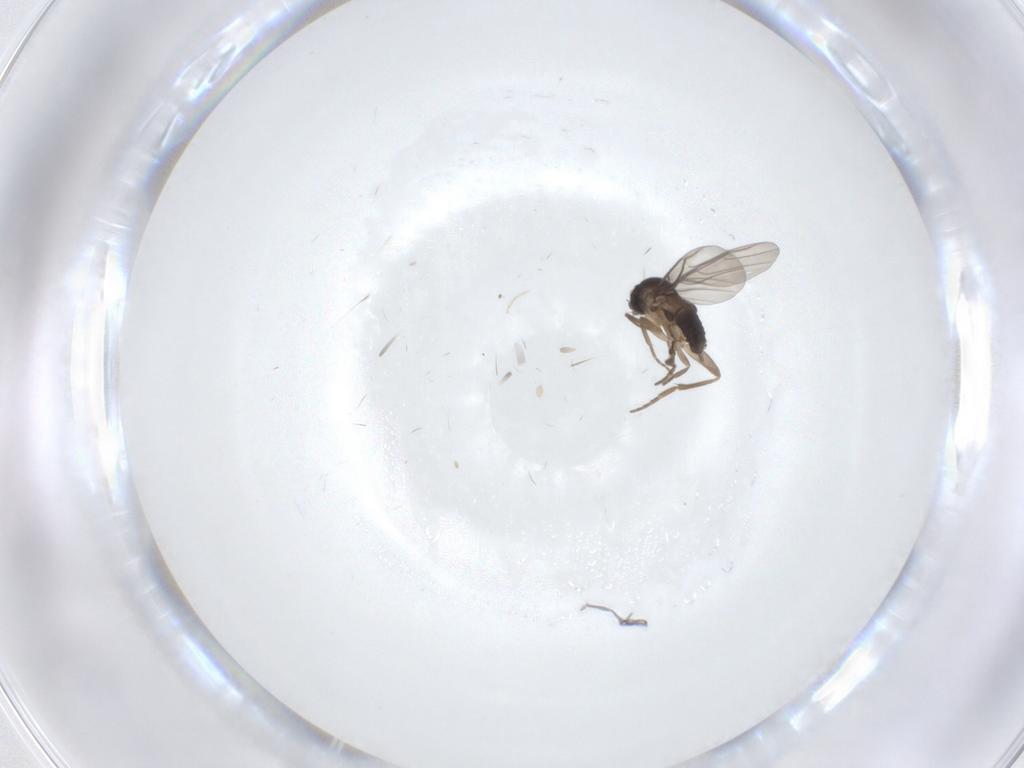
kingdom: Animalia
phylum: Arthropoda
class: Insecta
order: Diptera
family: Phoridae
